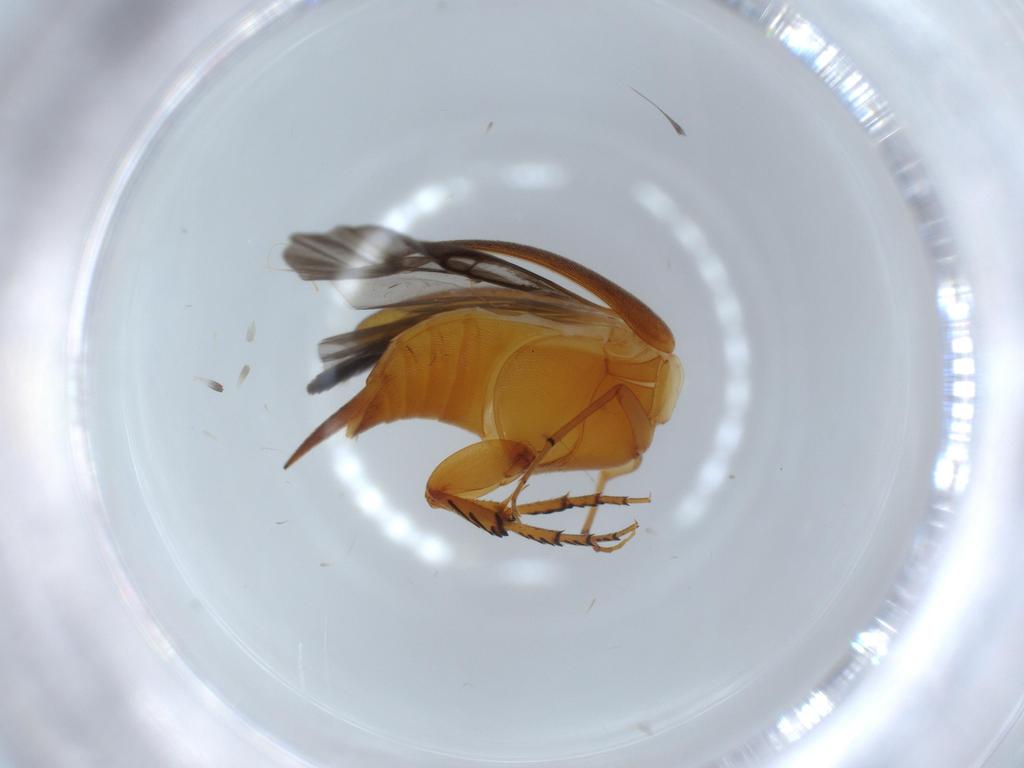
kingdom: Animalia
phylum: Arthropoda
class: Insecta
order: Coleoptera
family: Mordellidae
